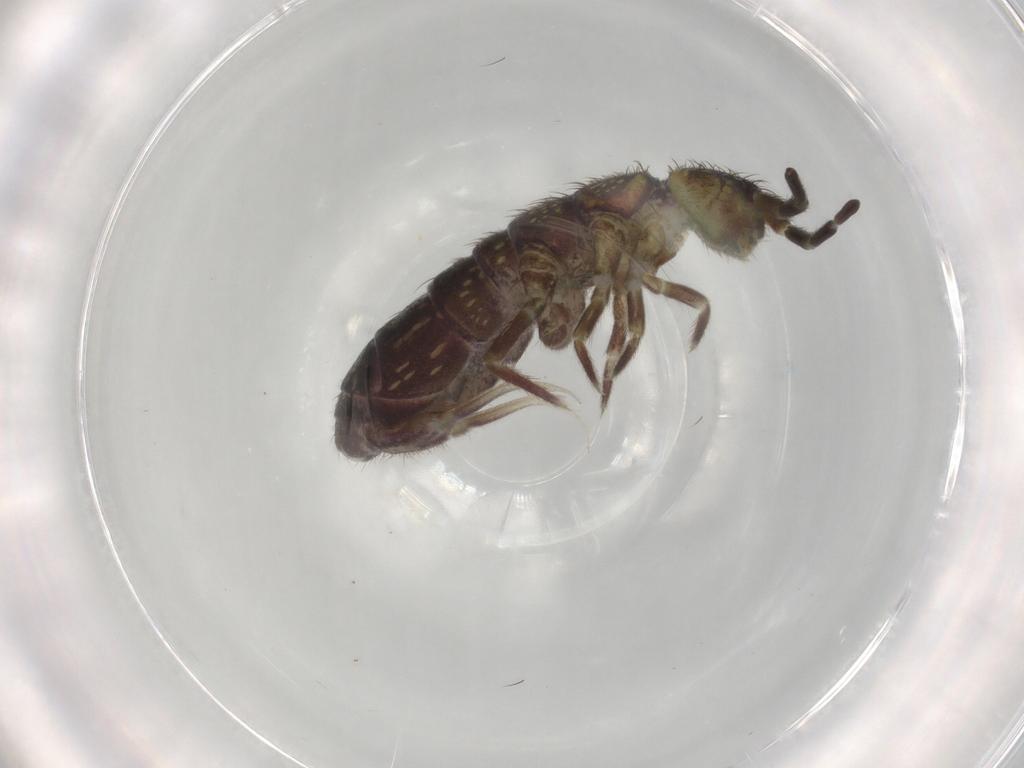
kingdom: Animalia
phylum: Arthropoda
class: Collembola
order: Entomobryomorpha
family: Isotomidae
